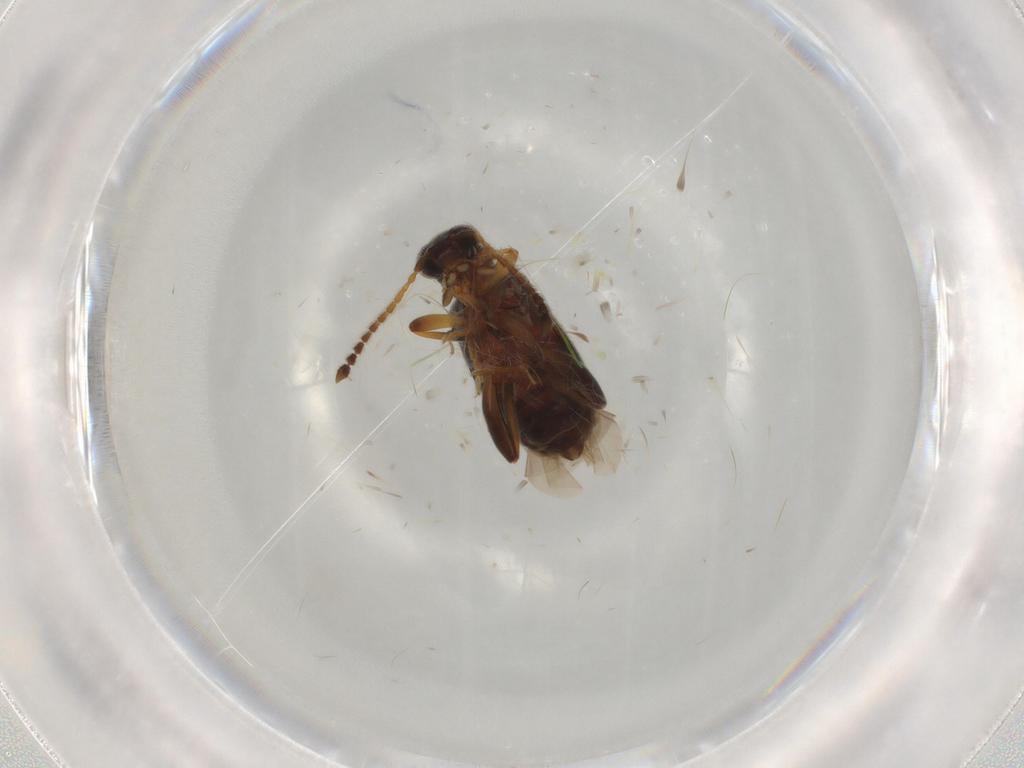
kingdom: Animalia
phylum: Arthropoda
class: Insecta
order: Coleoptera
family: Aderidae
